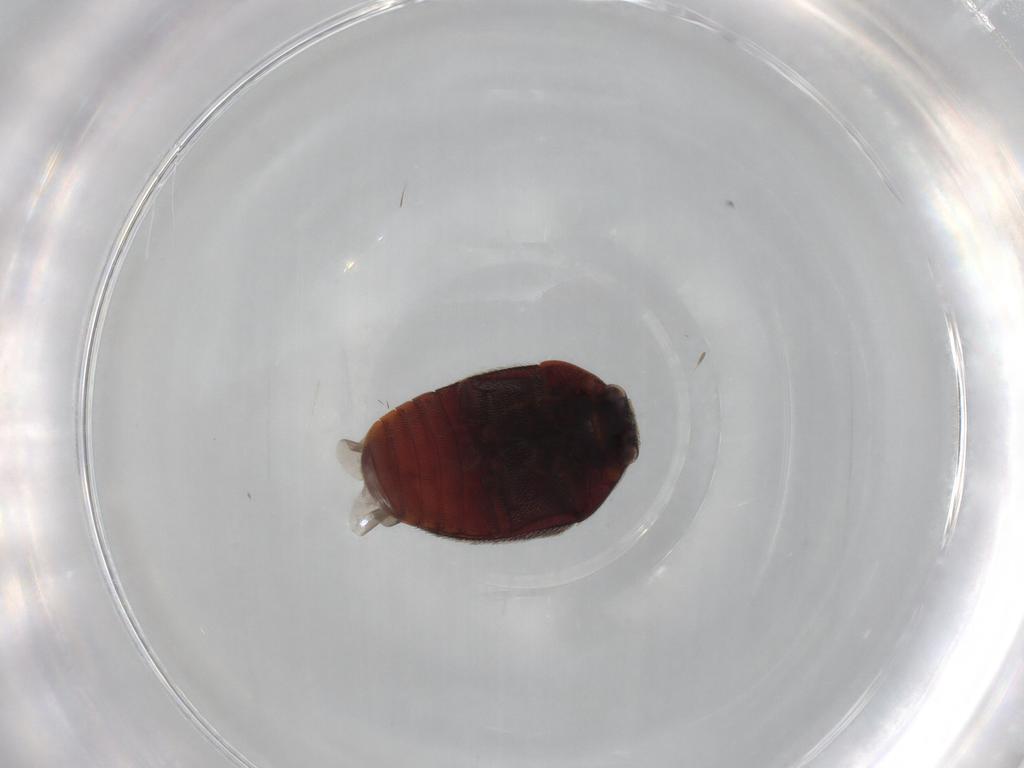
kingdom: Animalia
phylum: Arthropoda
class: Insecta
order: Coleoptera
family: Dermestidae
